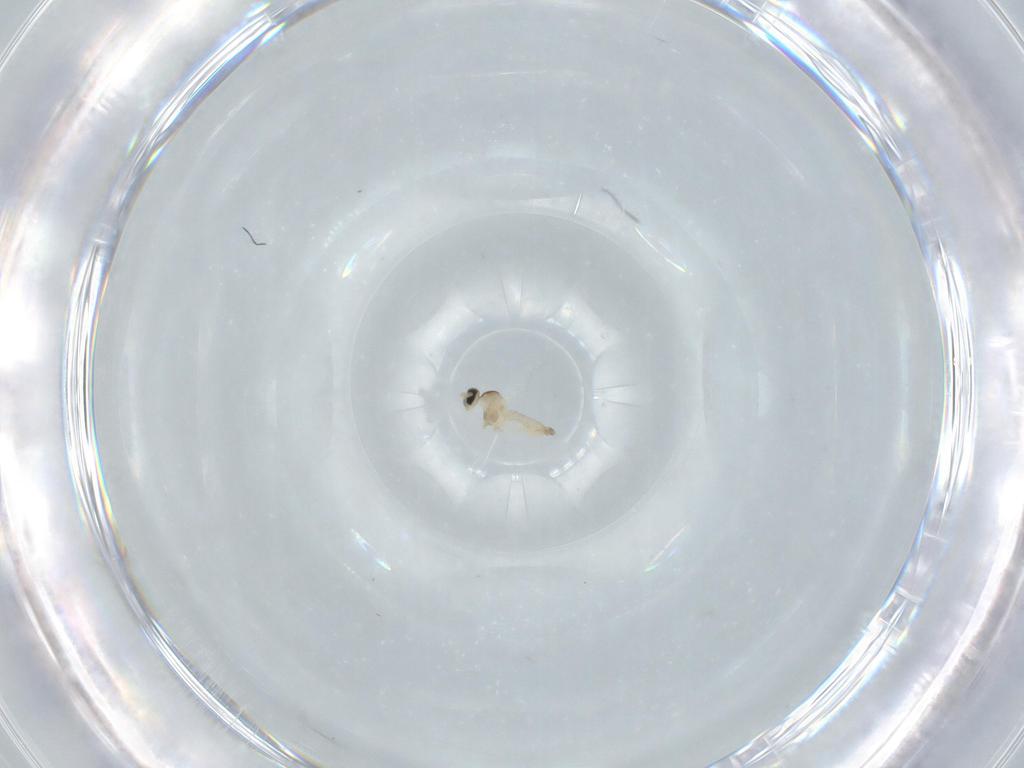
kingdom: Animalia
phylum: Arthropoda
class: Insecta
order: Diptera
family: Cecidomyiidae
